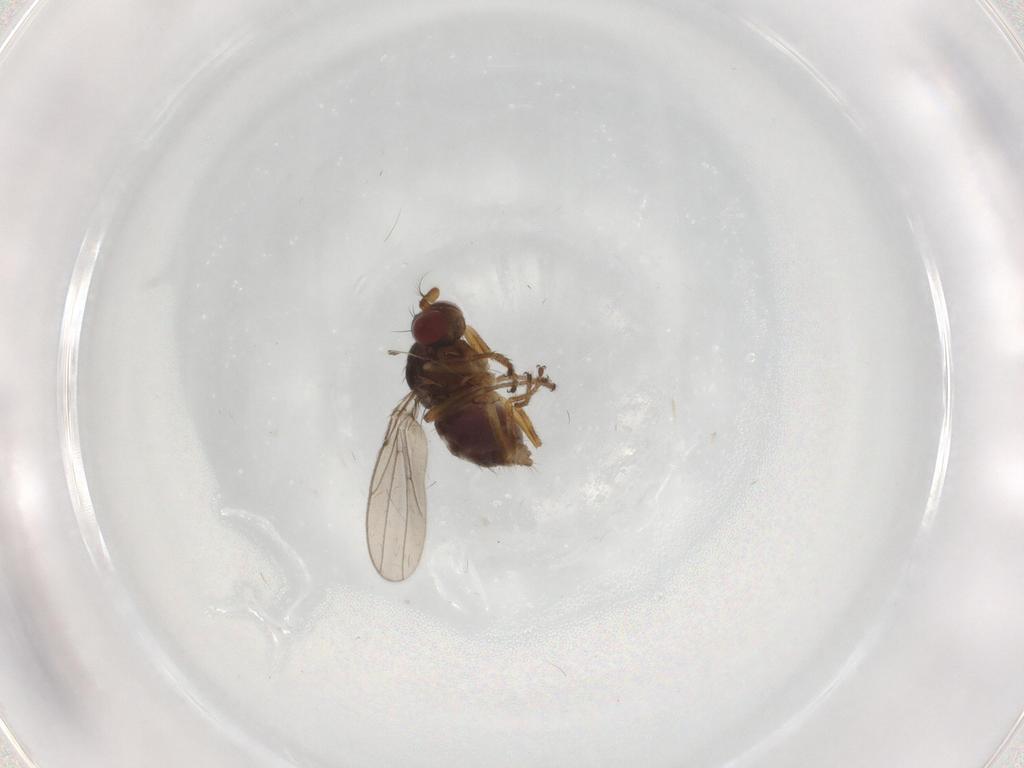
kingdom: Animalia
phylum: Arthropoda
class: Insecta
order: Diptera
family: Ephydridae
